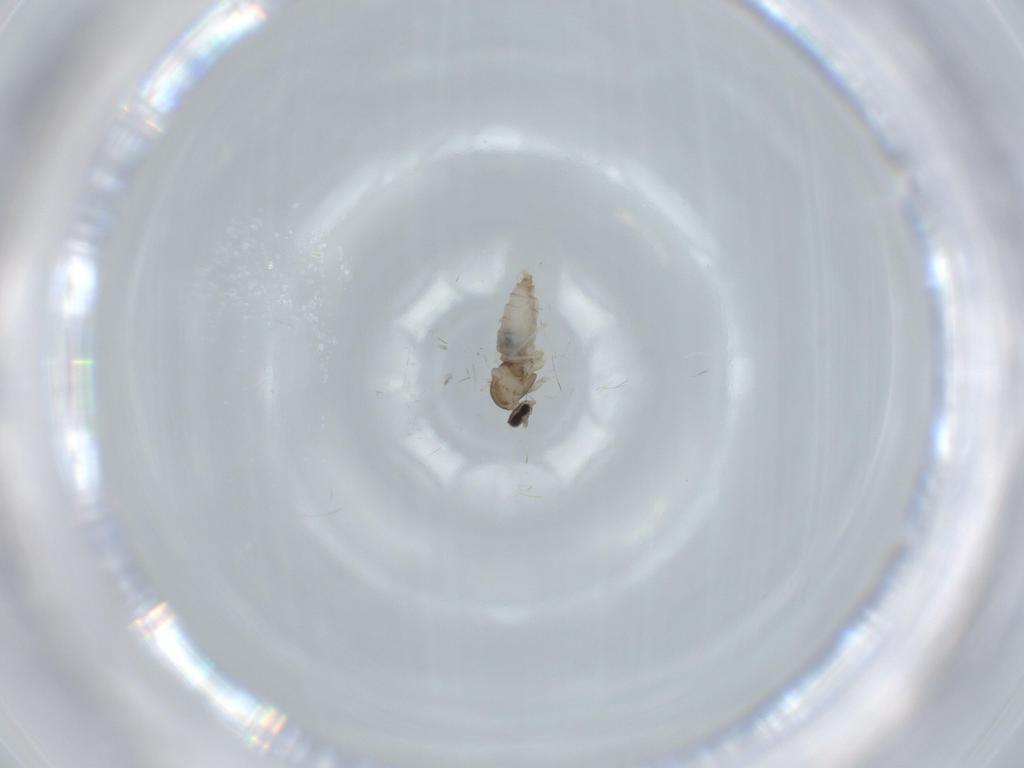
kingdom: Animalia
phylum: Arthropoda
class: Insecta
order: Diptera
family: Cecidomyiidae
